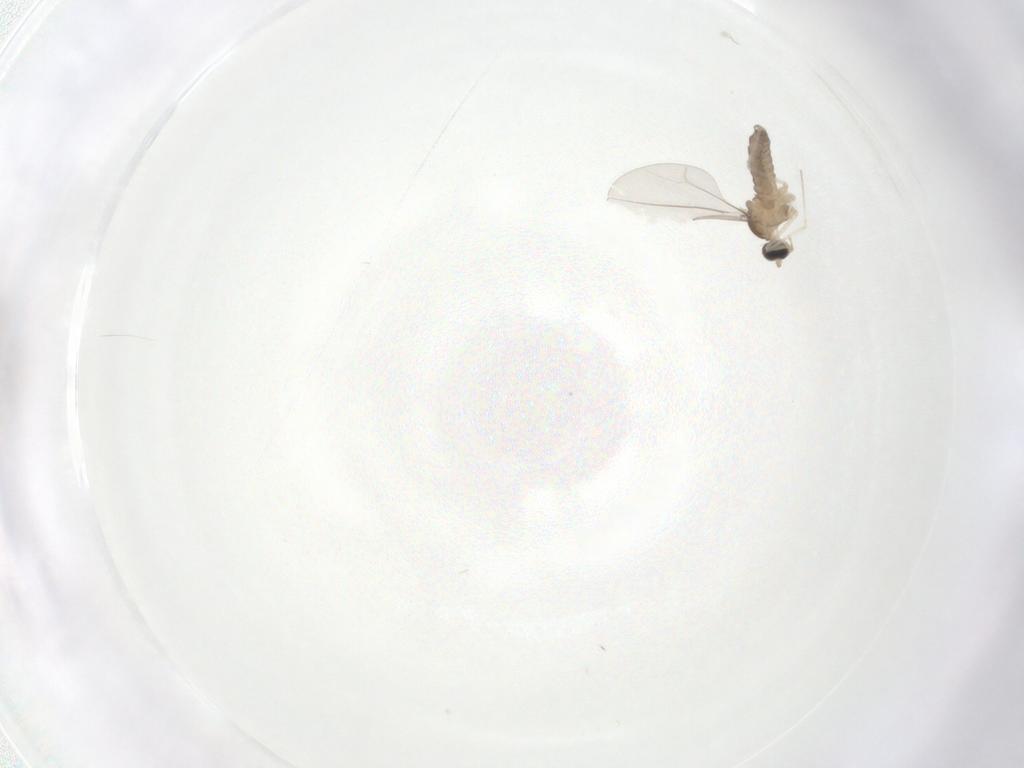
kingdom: Animalia
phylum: Arthropoda
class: Insecta
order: Diptera
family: Cecidomyiidae
